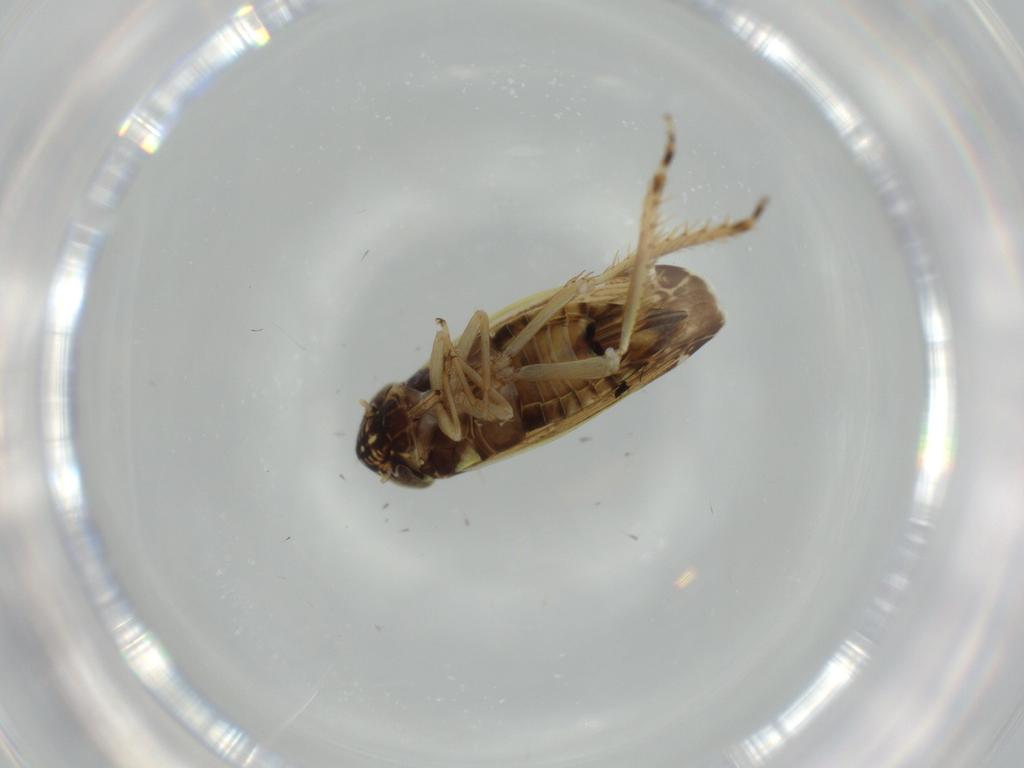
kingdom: Animalia
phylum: Arthropoda
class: Insecta
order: Hemiptera
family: Cicadellidae
